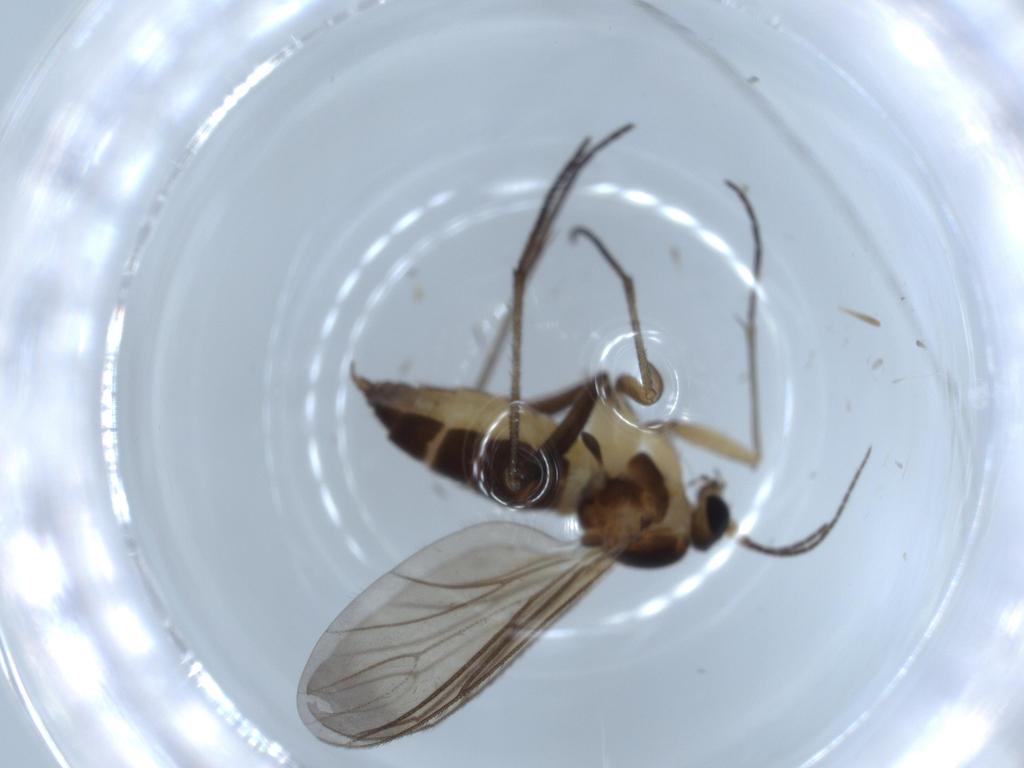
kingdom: Animalia
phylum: Arthropoda
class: Insecta
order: Diptera
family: Sciaridae
